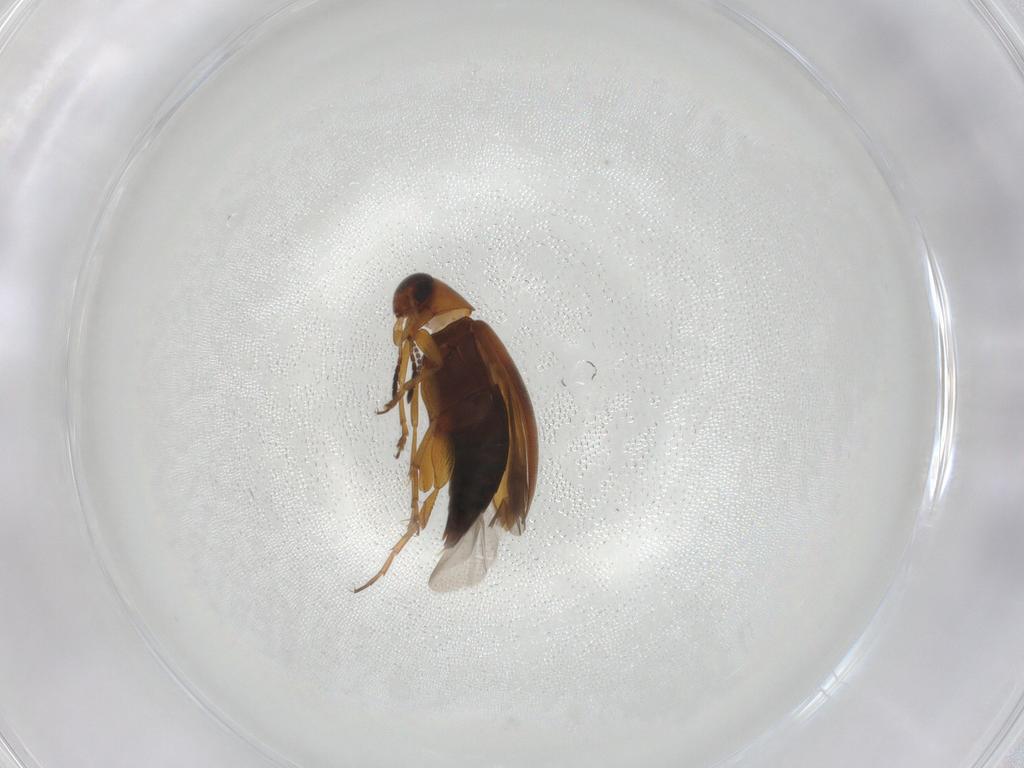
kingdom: Animalia
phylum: Arthropoda
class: Insecta
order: Coleoptera
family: Scraptiidae
